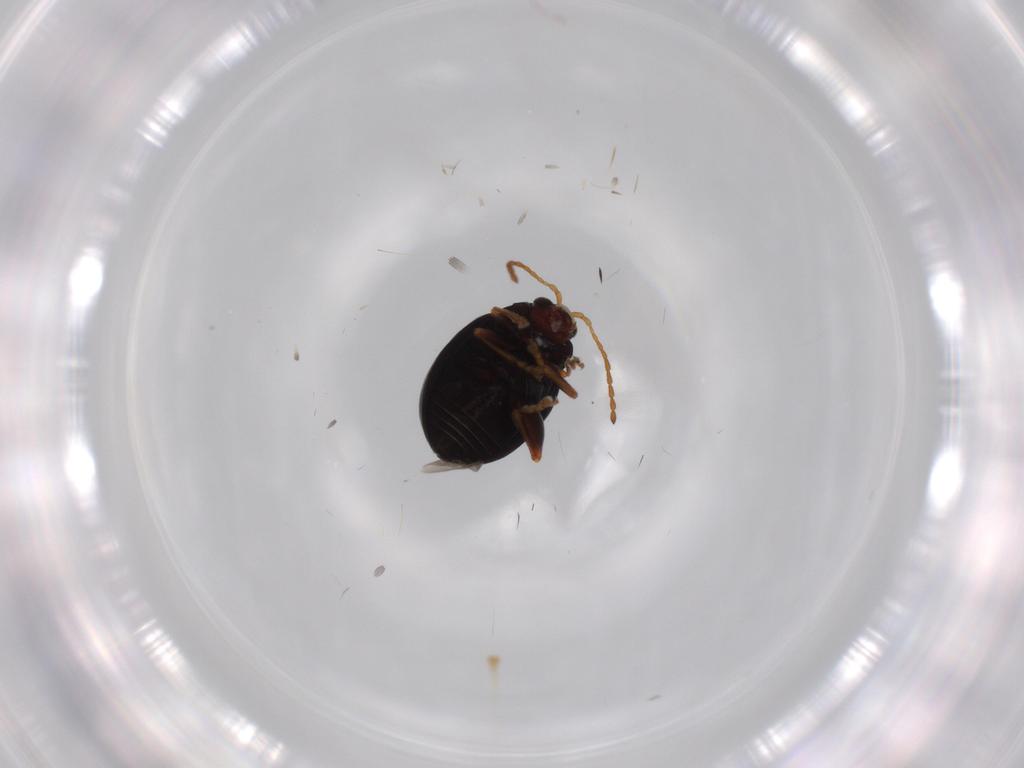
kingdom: Animalia
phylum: Arthropoda
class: Insecta
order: Coleoptera
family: Chrysomelidae
